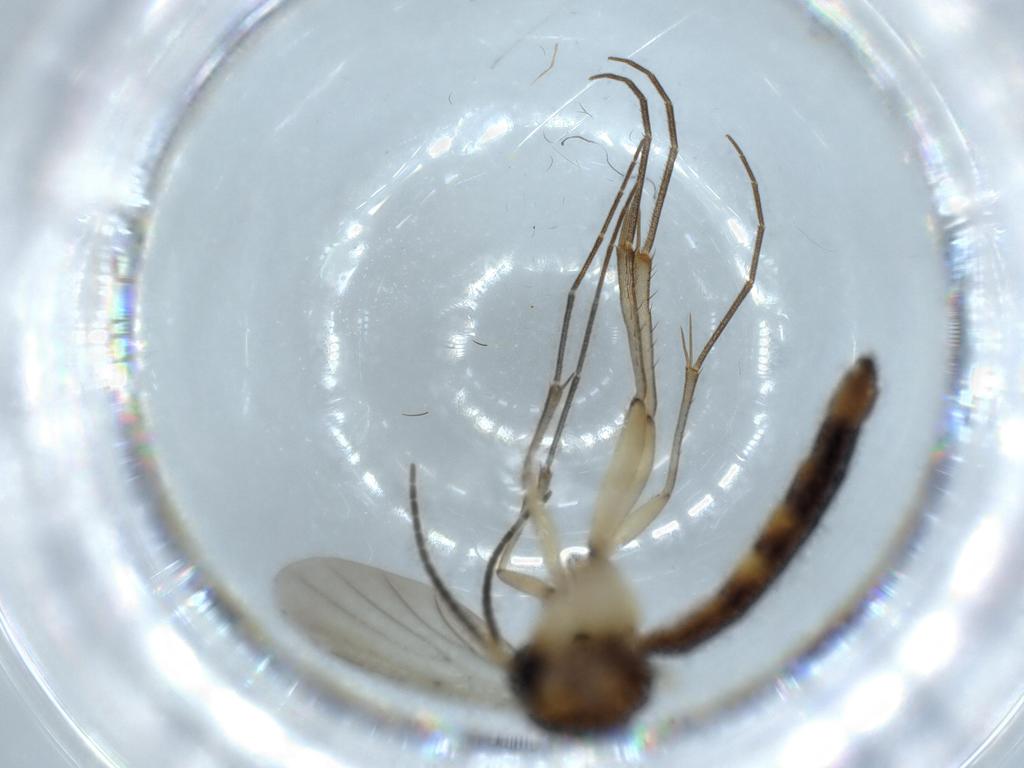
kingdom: Animalia
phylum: Arthropoda
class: Insecta
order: Diptera
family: Mycetophilidae
